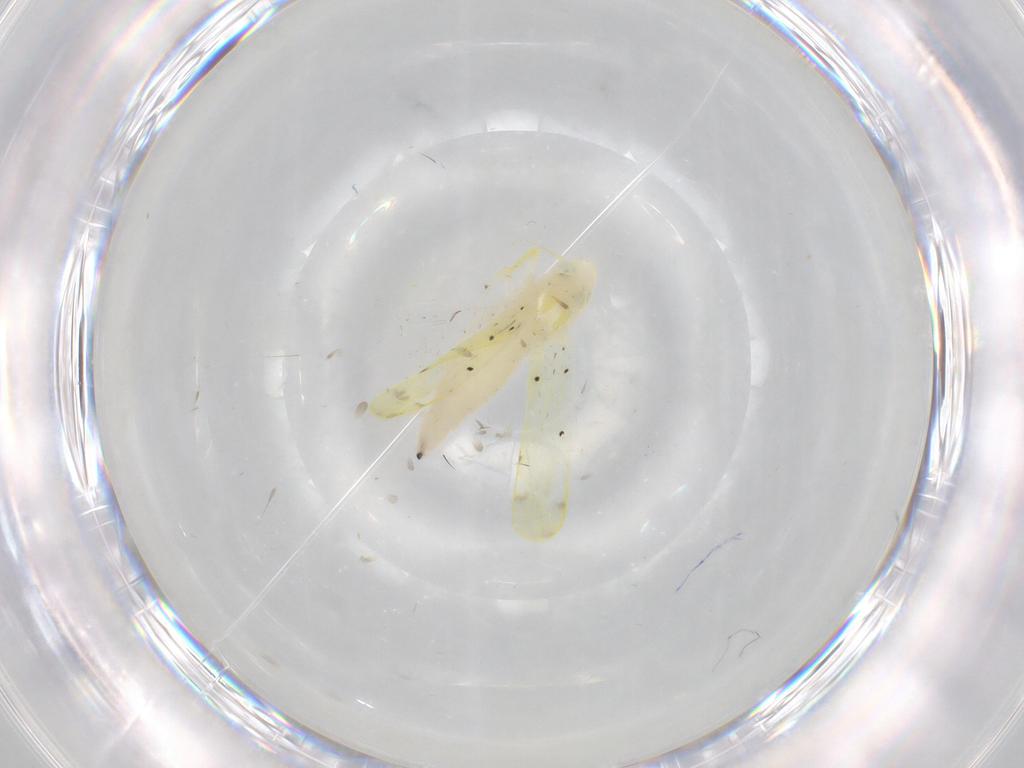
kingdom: Animalia
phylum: Arthropoda
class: Insecta
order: Hemiptera
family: Cicadellidae
